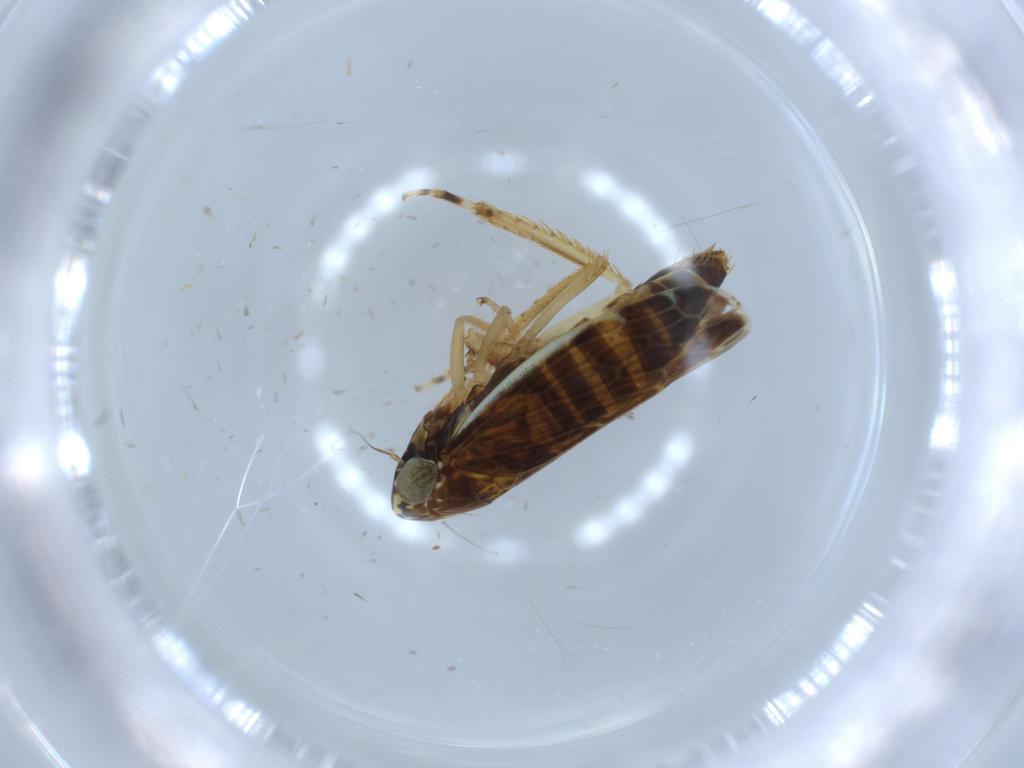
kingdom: Animalia
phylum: Arthropoda
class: Insecta
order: Hemiptera
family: Cicadellidae
